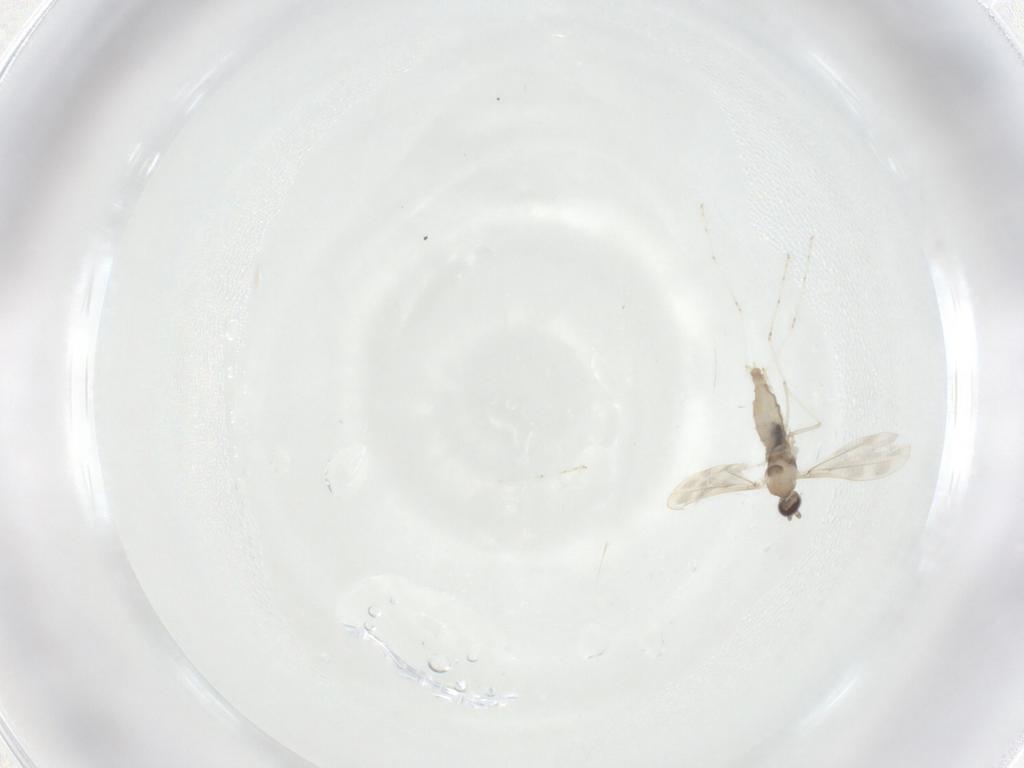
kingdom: Animalia
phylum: Arthropoda
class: Insecta
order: Diptera
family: Cecidomyiidae
